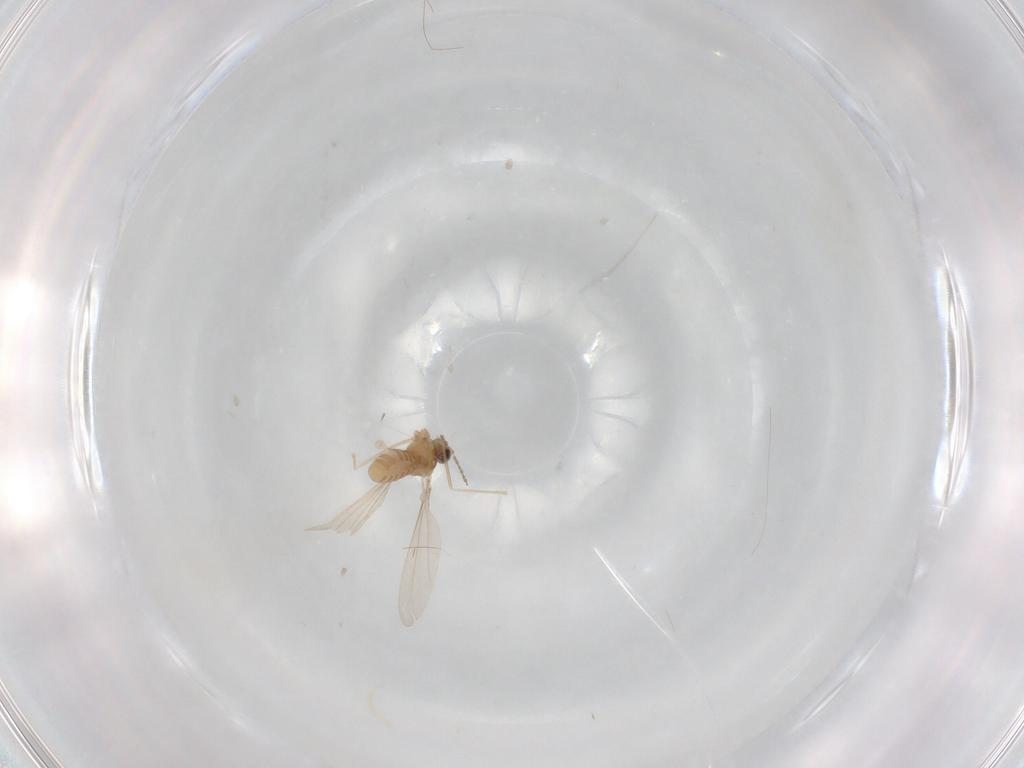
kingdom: Animalia
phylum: Arthropoda
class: Insecta
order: Diptera
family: Cecidomyiidae
